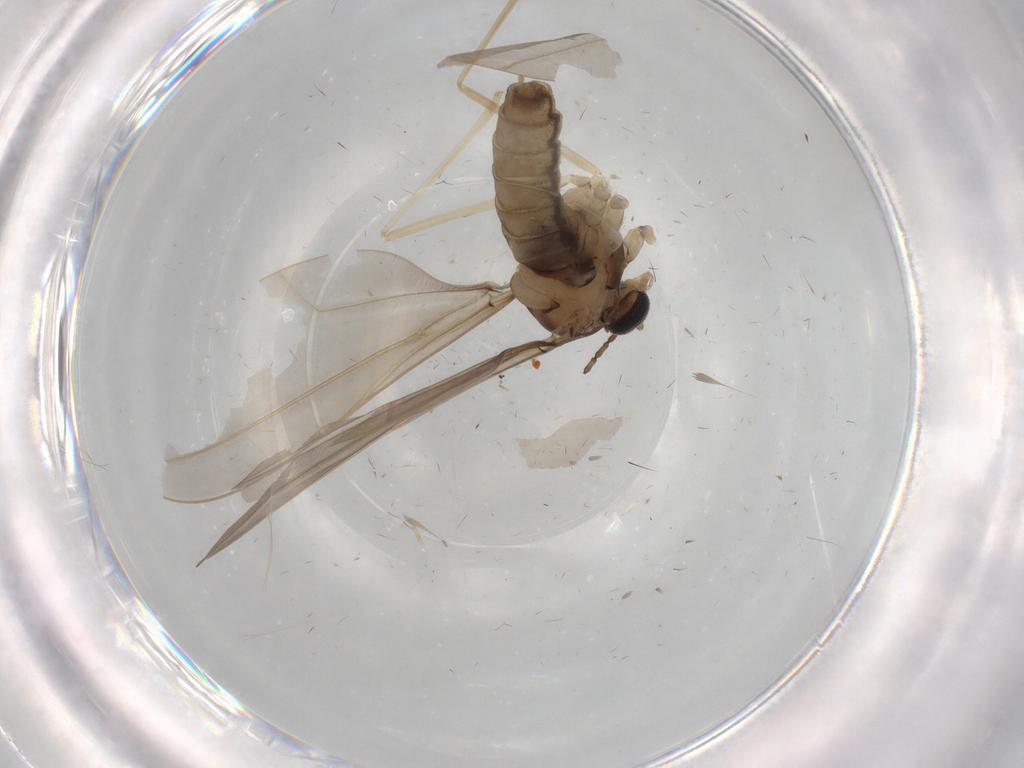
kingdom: Animalia
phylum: Arthropoda
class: Insecta
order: Diptera
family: Cecidomyiidae
